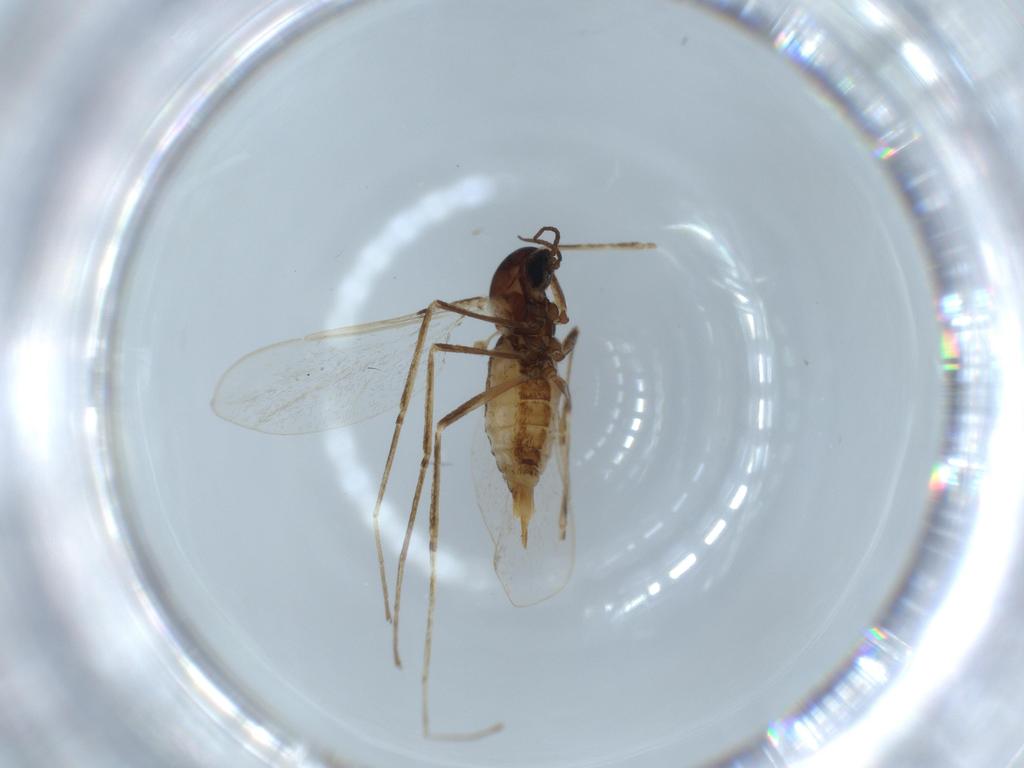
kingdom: Animalia
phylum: Arthropoda
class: Insecta
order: Diptera
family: Cecidomyiidae
